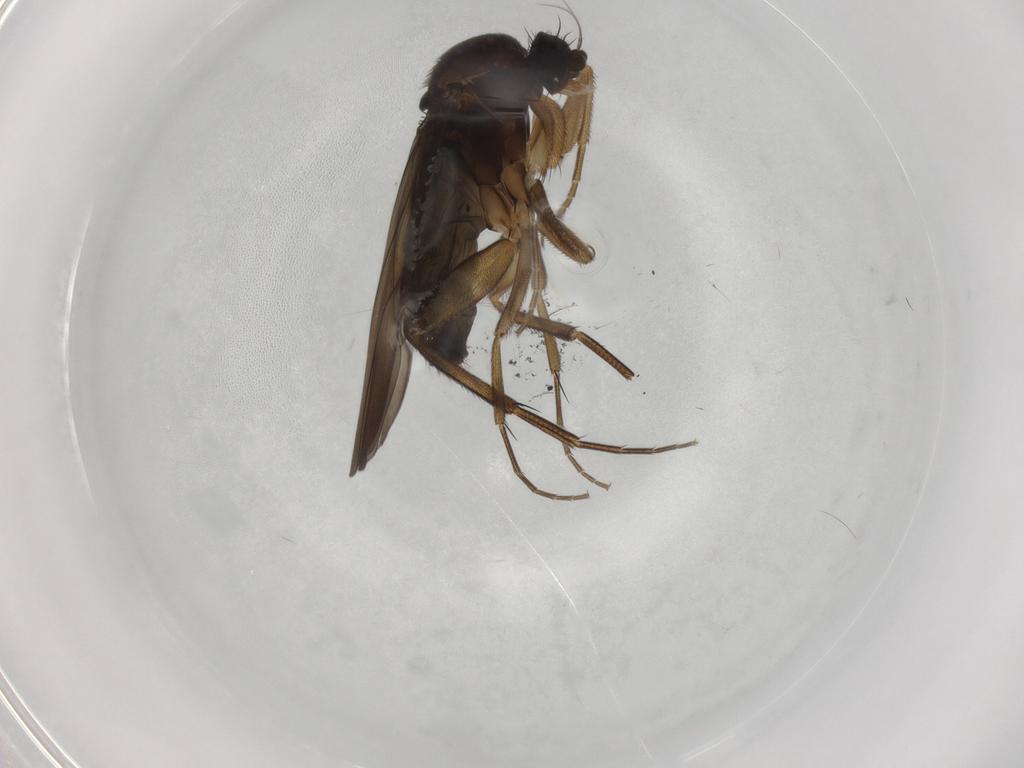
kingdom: Animalia
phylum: Arthropoda
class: Insecta
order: Diptera
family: Phoridae
